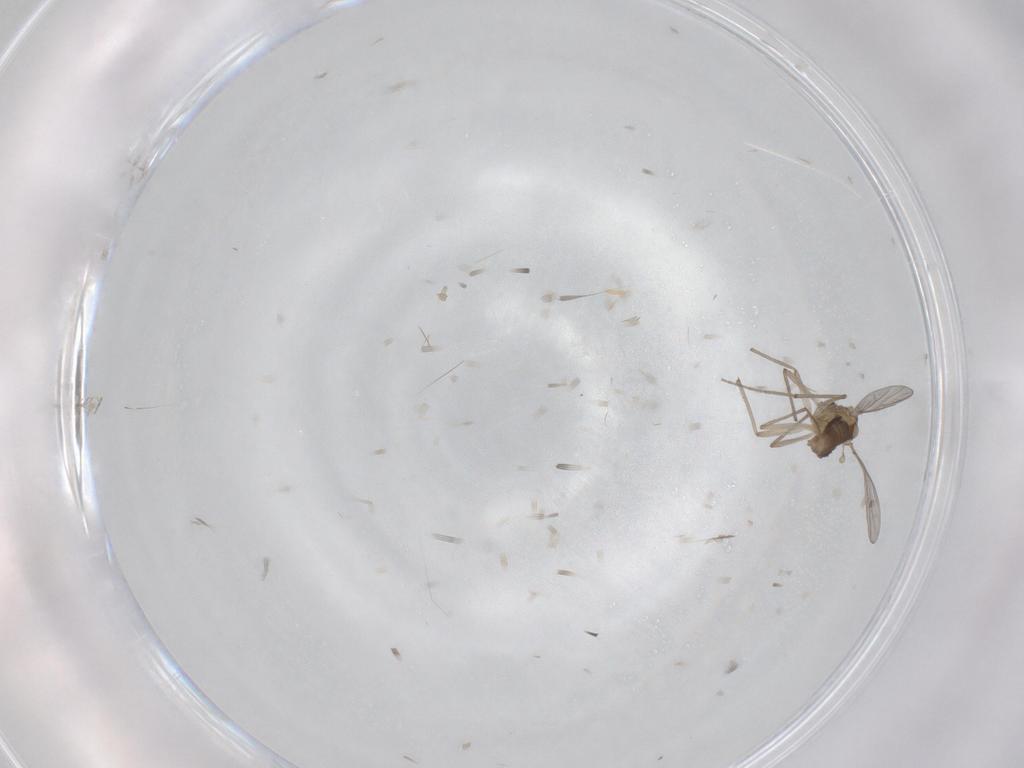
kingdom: Animalia
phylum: Arthropoda
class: Insecta
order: Diptera
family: Chironomidae
